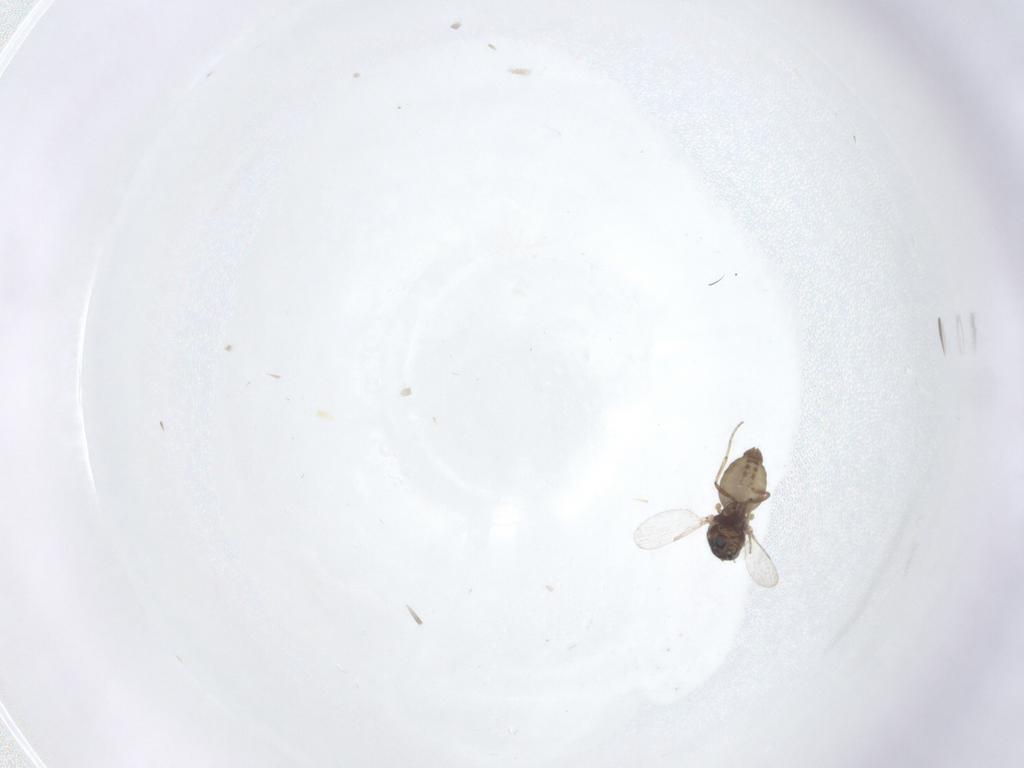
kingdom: Animalia
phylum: Arthropoda
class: Insecta
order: Diptera
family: Ceratopogonidae
